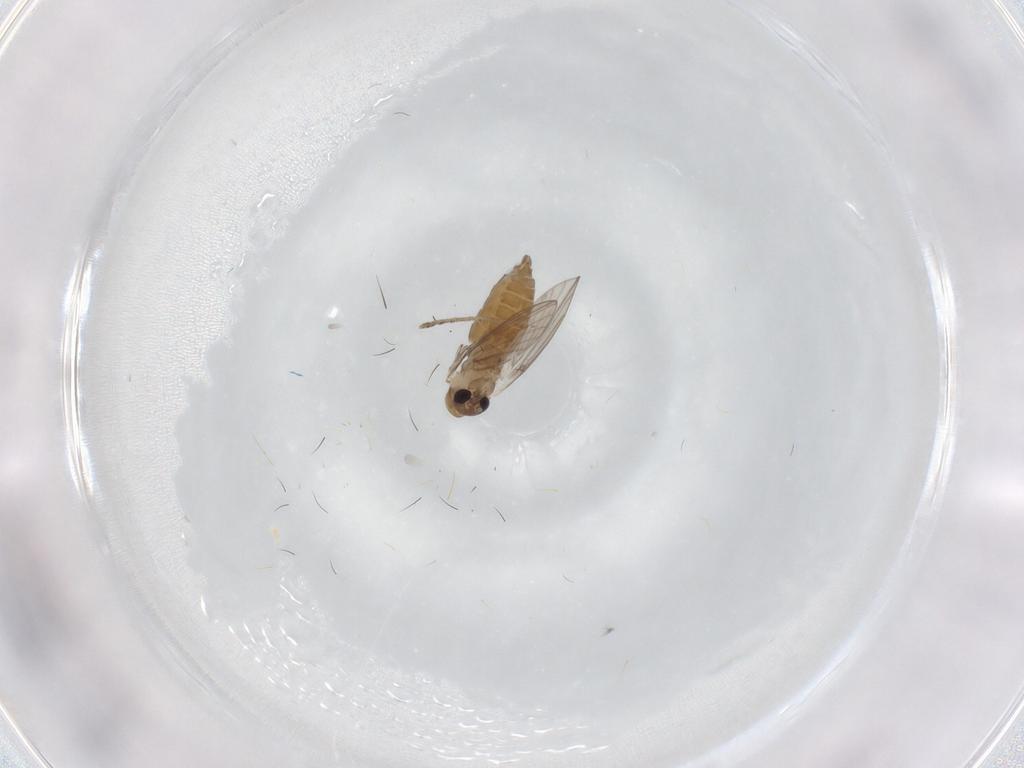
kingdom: Animalia
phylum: Arthropoda
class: Insecta
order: Diptera
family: Psychodidae
